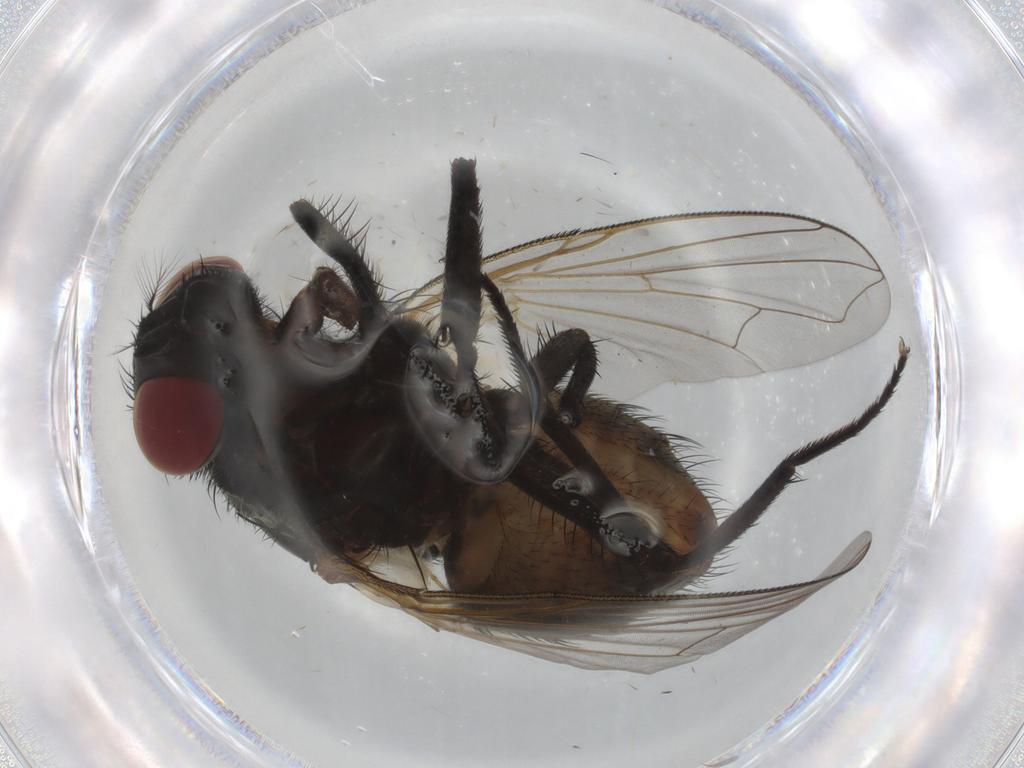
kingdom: Animalia
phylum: Arthropoda
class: Insecta
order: Diptera
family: Muscidae
